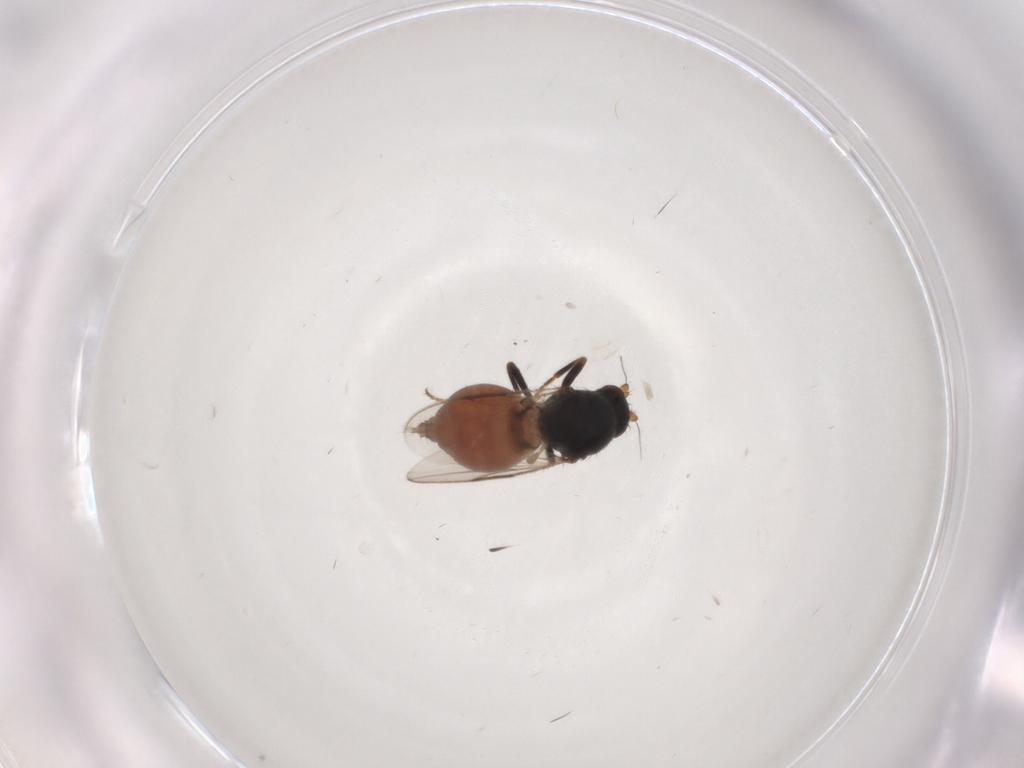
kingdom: Animalia
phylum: Arthropoda
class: Insecta
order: Diptera
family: Sphaeroceridae
